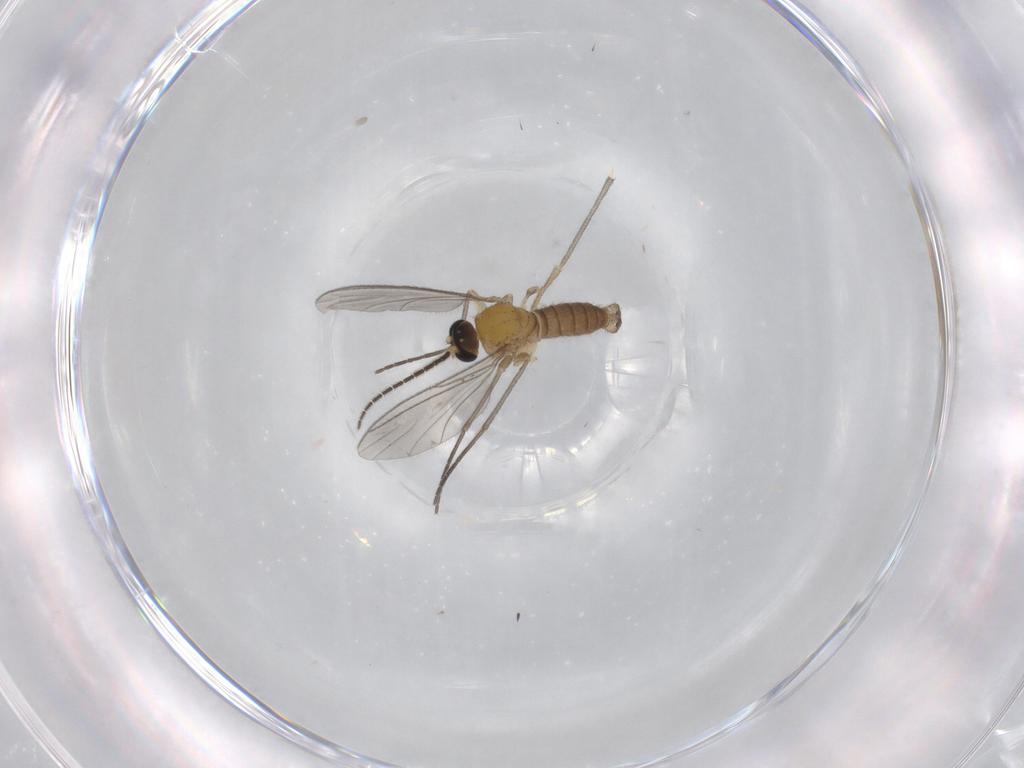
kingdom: Animalia
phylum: Arthropoda
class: Insecta
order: Diptera
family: Sciaridae
